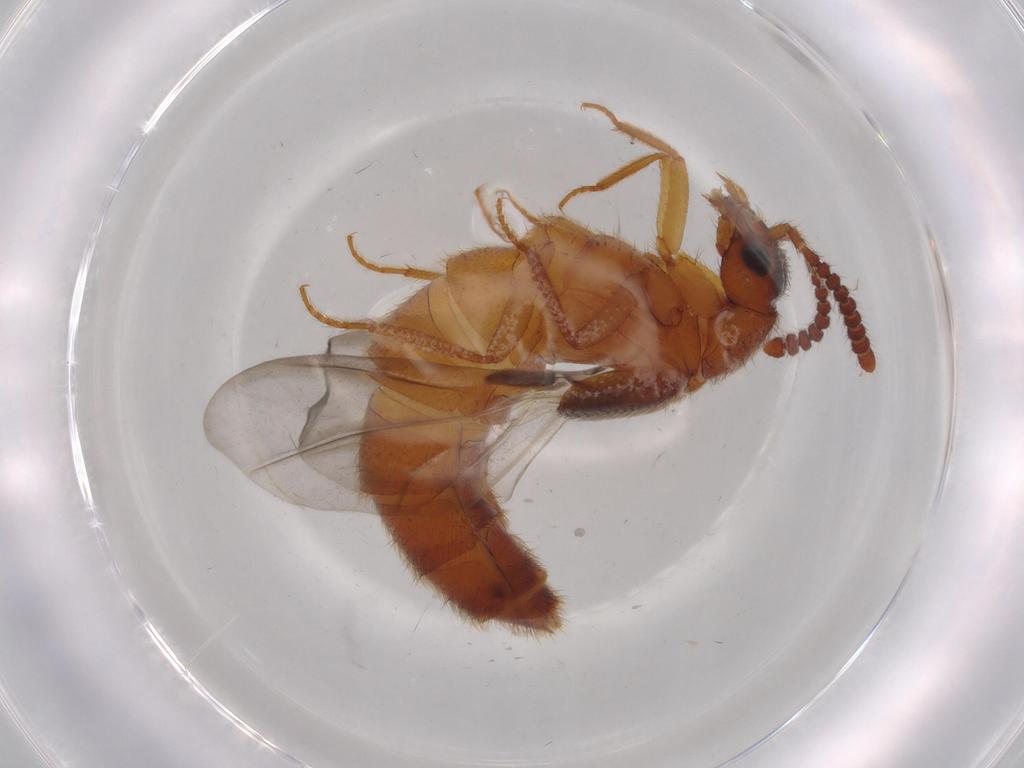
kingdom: Animalia
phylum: Arthropoda
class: Insecta
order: Coleoptera
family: Staphylinidae
